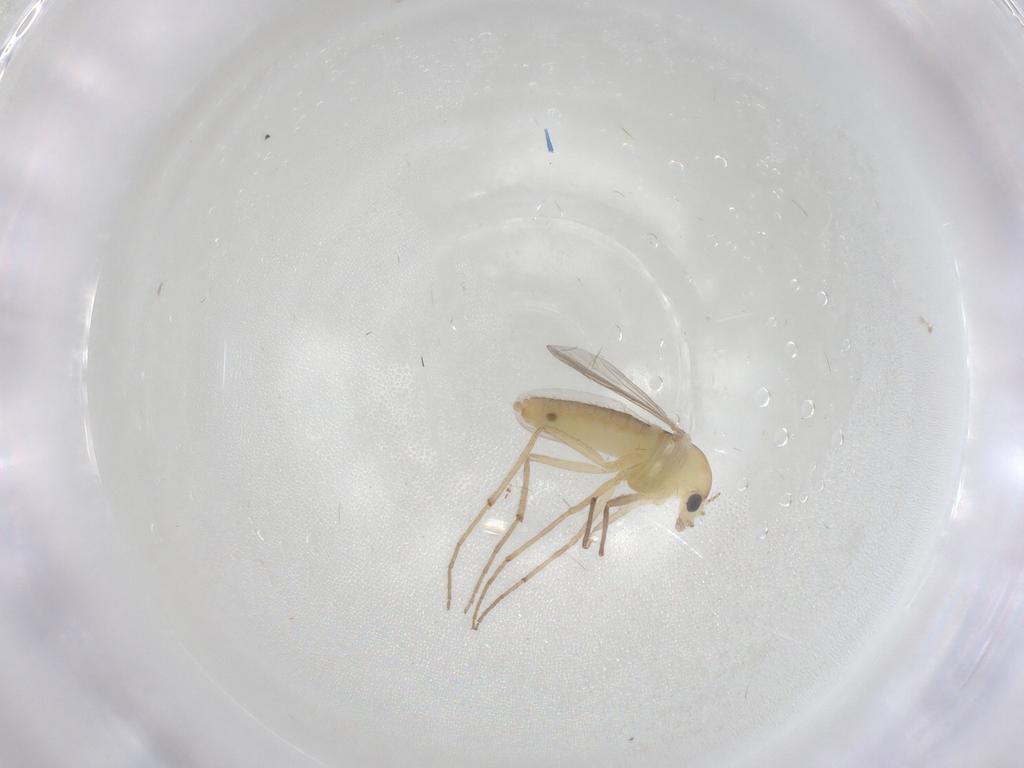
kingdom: Animalia
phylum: Arthropoda
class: Insecta
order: Diptera
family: Chironomidae
